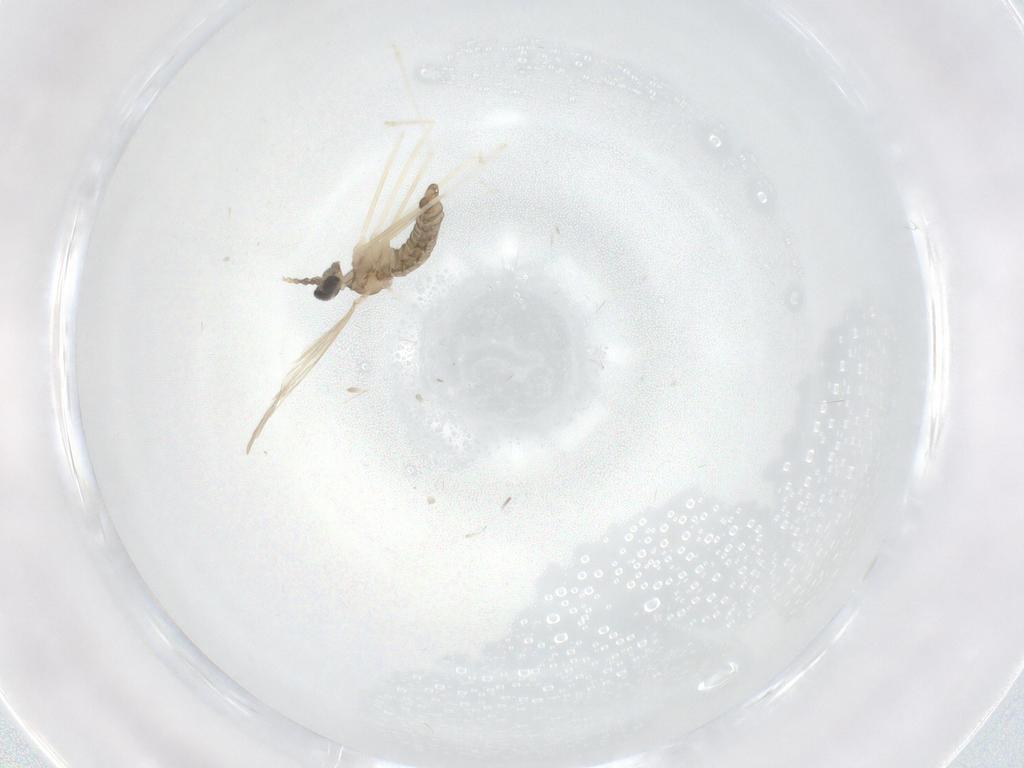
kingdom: Animalia
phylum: Arthropoda
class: Insecta
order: Diptera
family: Cecidomyiidae
